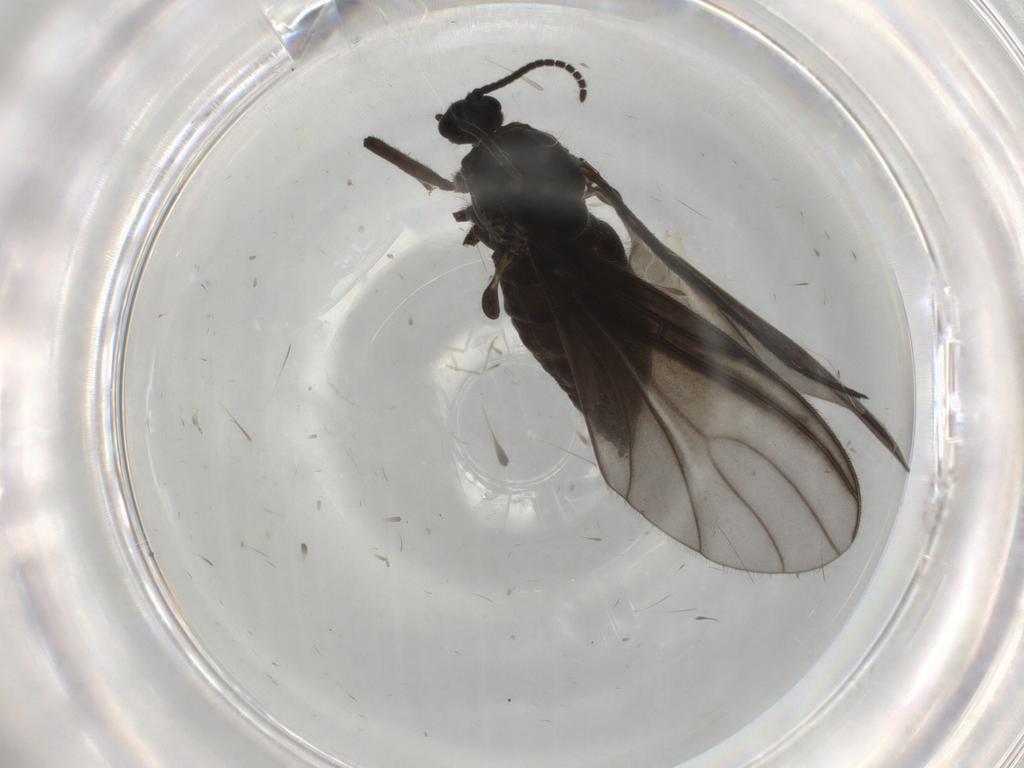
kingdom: Animalia
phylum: Arthropoda
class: Insecta
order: Diptera
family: Sciaridae
